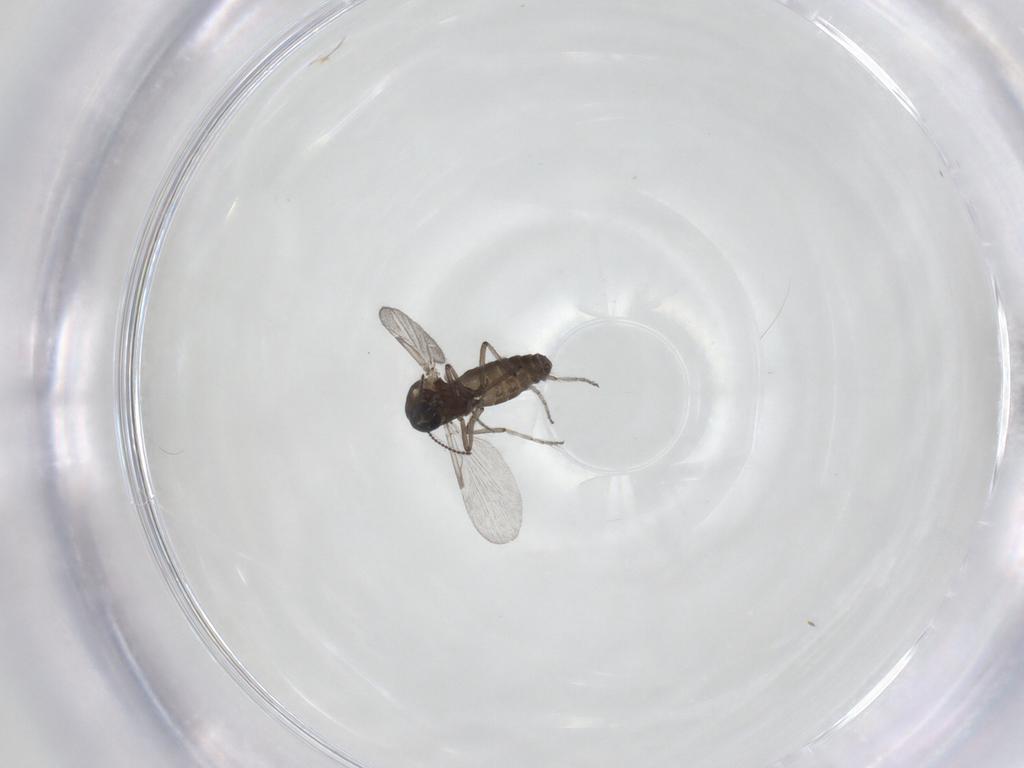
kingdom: Animalia
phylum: Arthropoda
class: Insecta
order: Diptera
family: Ceratopogonidae
